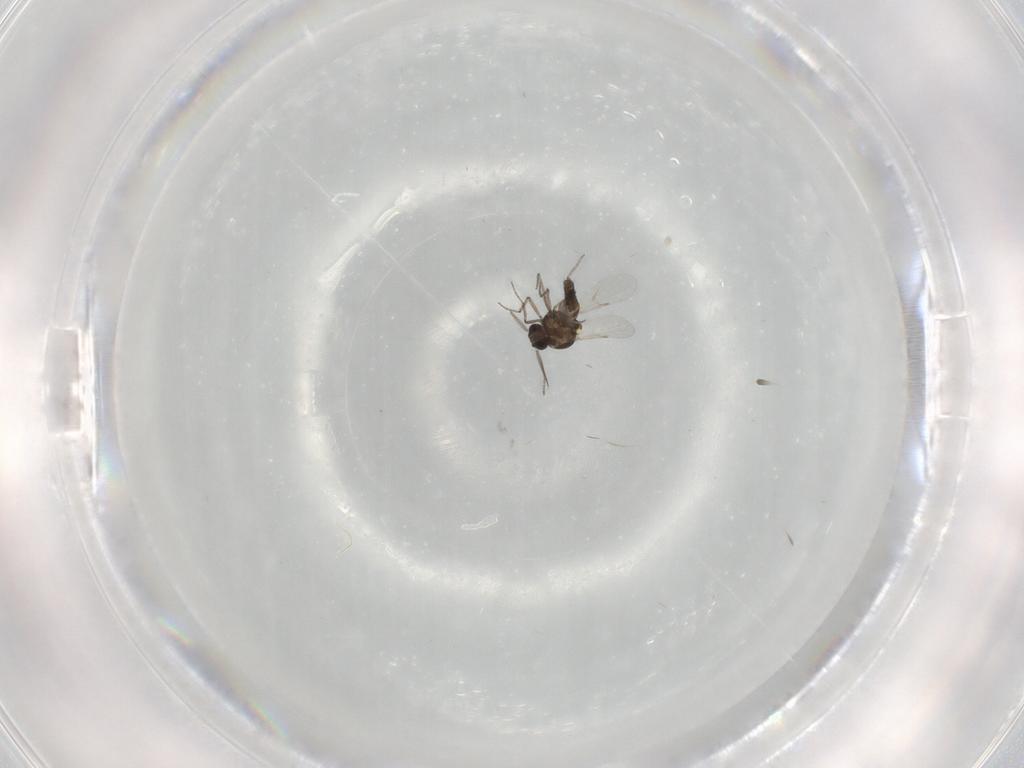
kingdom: Animalia
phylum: Arthropoda
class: Insecta
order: Diptera
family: Ceratopogonidae
